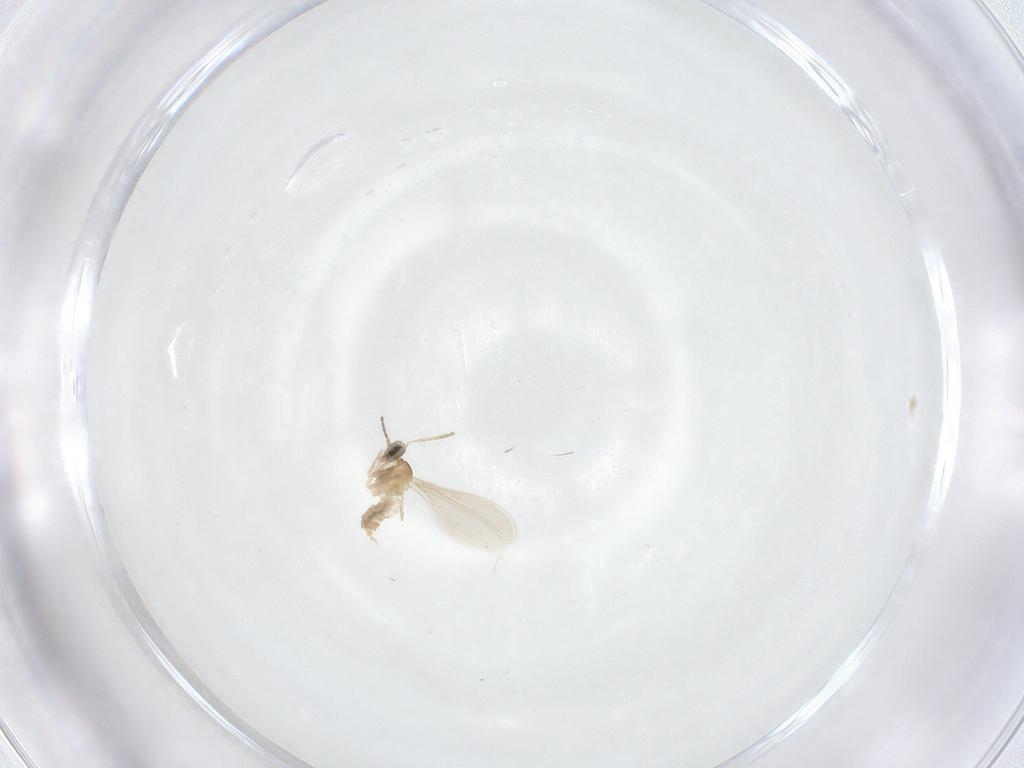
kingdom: Animalia
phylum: Arthropoda
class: Insecta
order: Diptera
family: Cecidomyiidae
